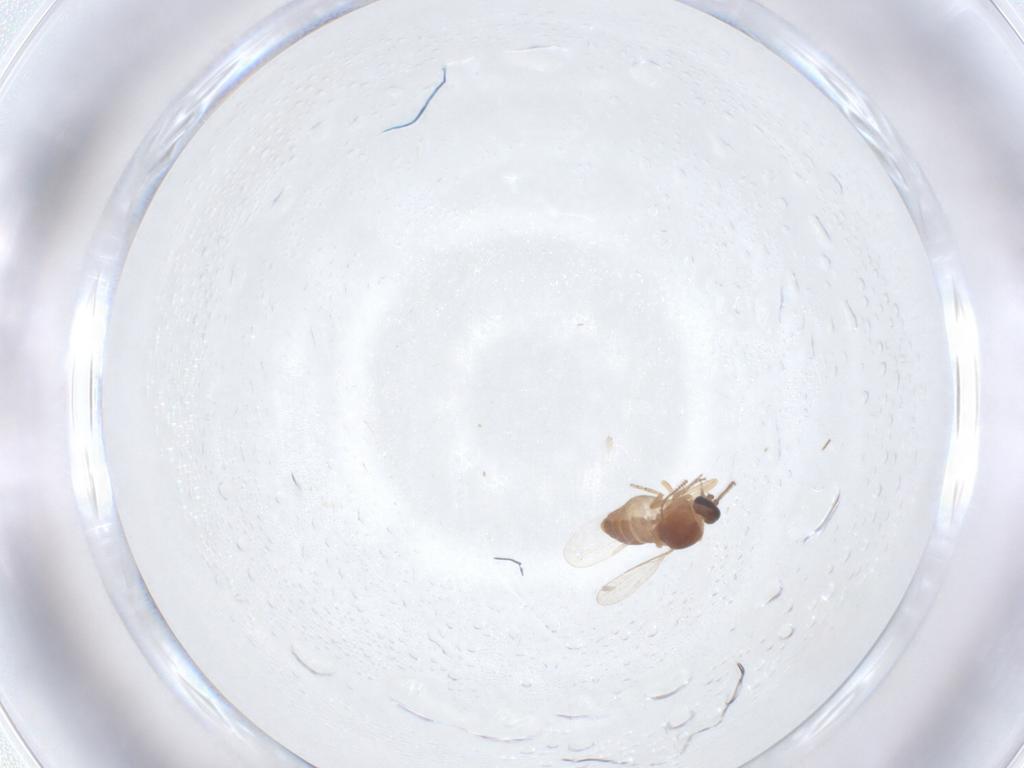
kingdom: Animalia
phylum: Arthropoda
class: Insecta
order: Diptera
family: Ceratopogonidae
